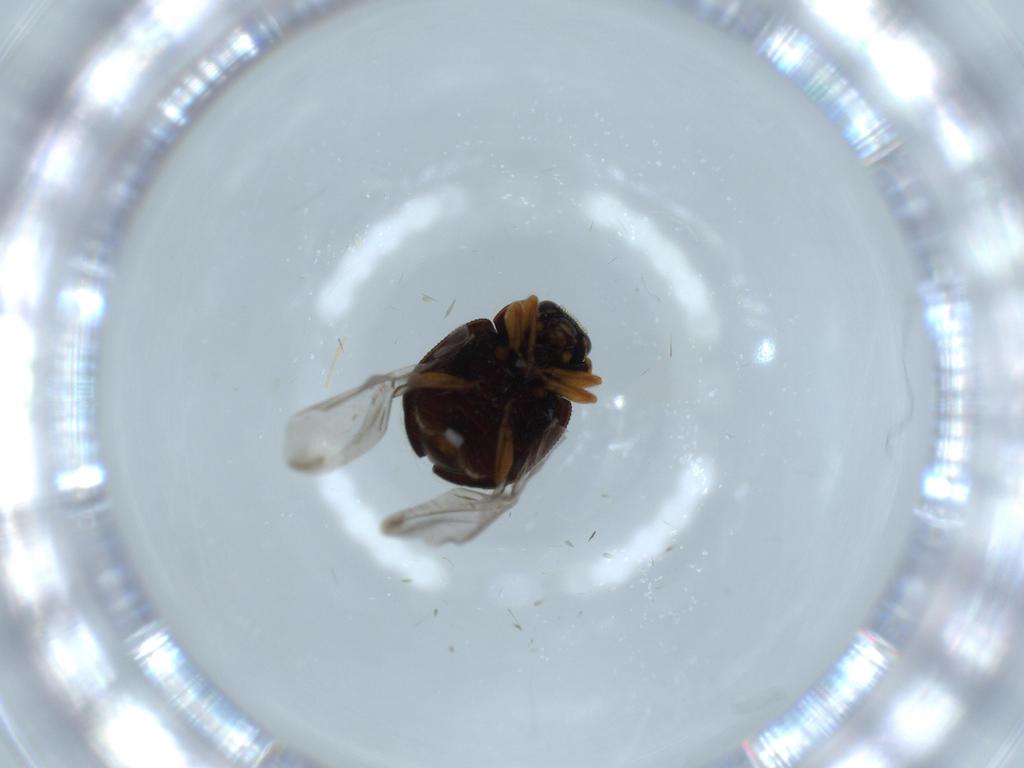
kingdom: Animalia
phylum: Arthropoda
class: Insecta
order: Coleoptera
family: Coccinellidae
